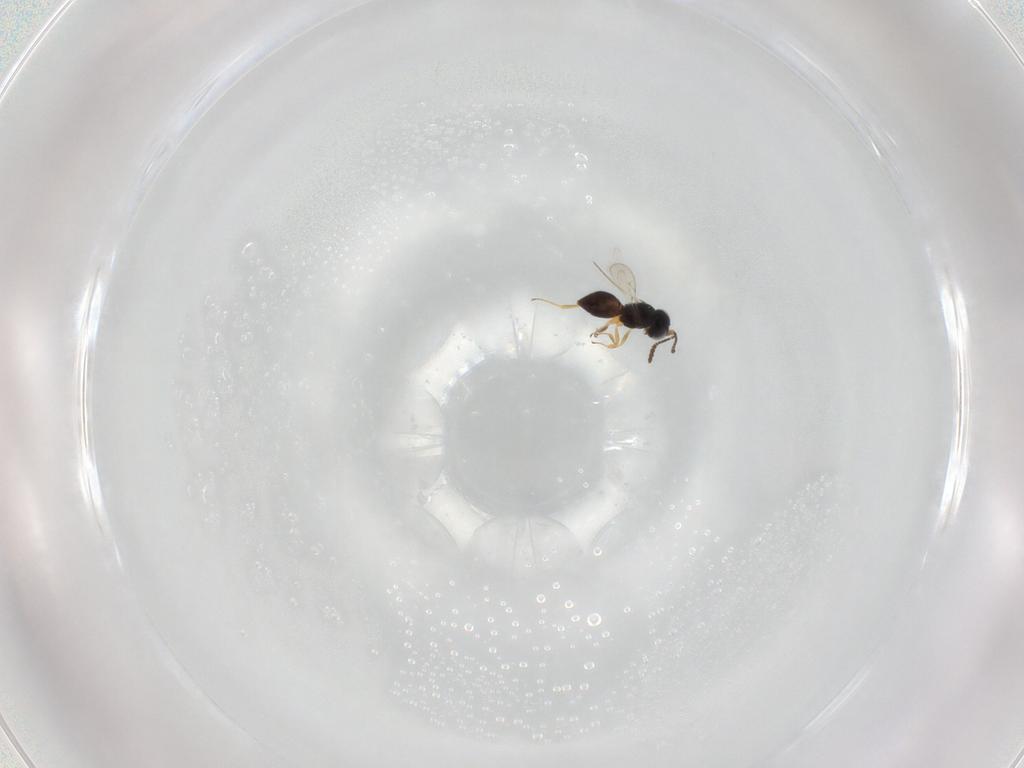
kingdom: Animalia
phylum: Arthropoda
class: Insecta
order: Hymenoptera
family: Scelionidae
